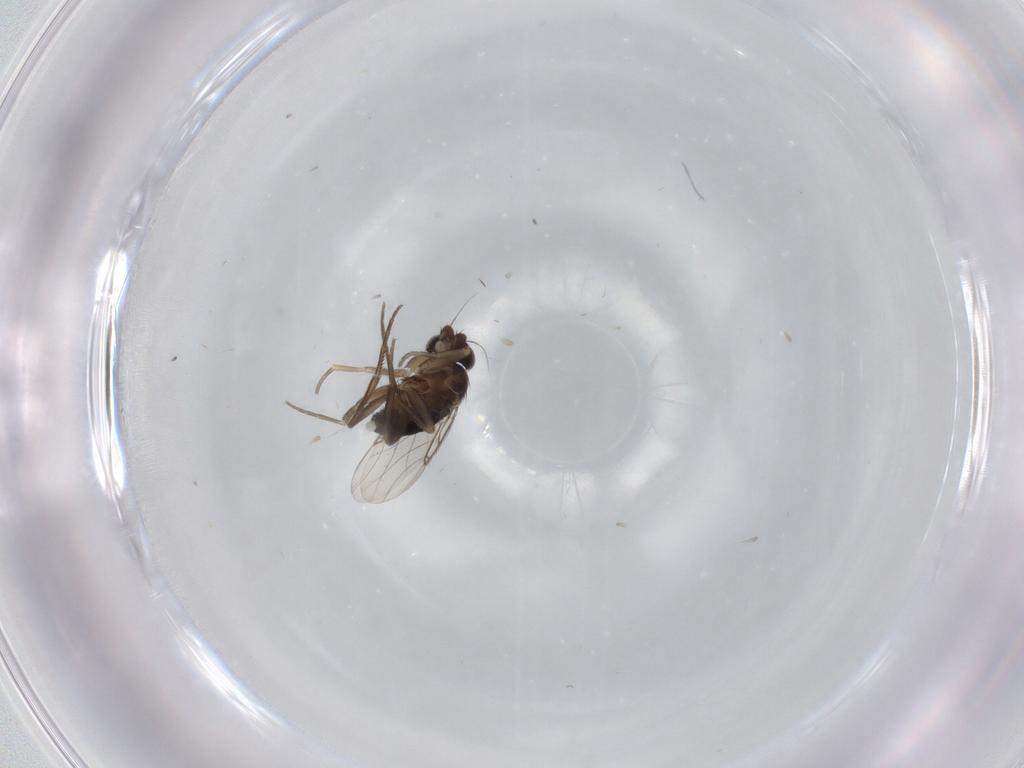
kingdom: Animalia
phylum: Arthropoda
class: Insecta
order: Diptera
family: Phoridae
